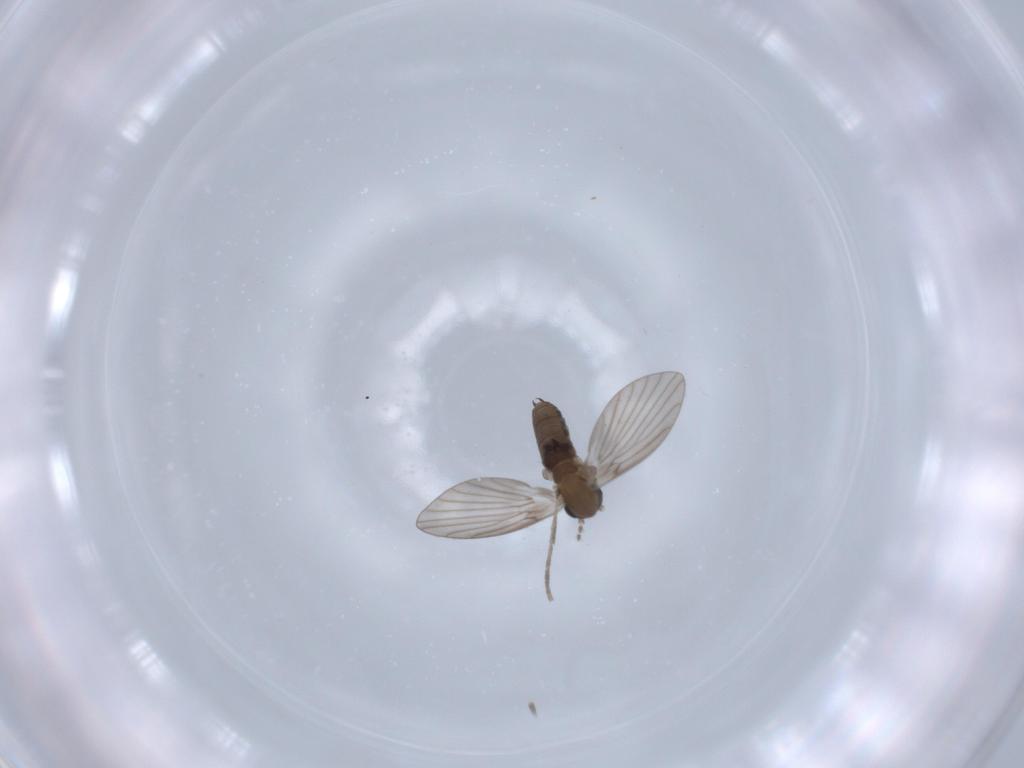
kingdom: Animalia
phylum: Arthropoda
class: Insecta
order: Diptera
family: Psychodidae
